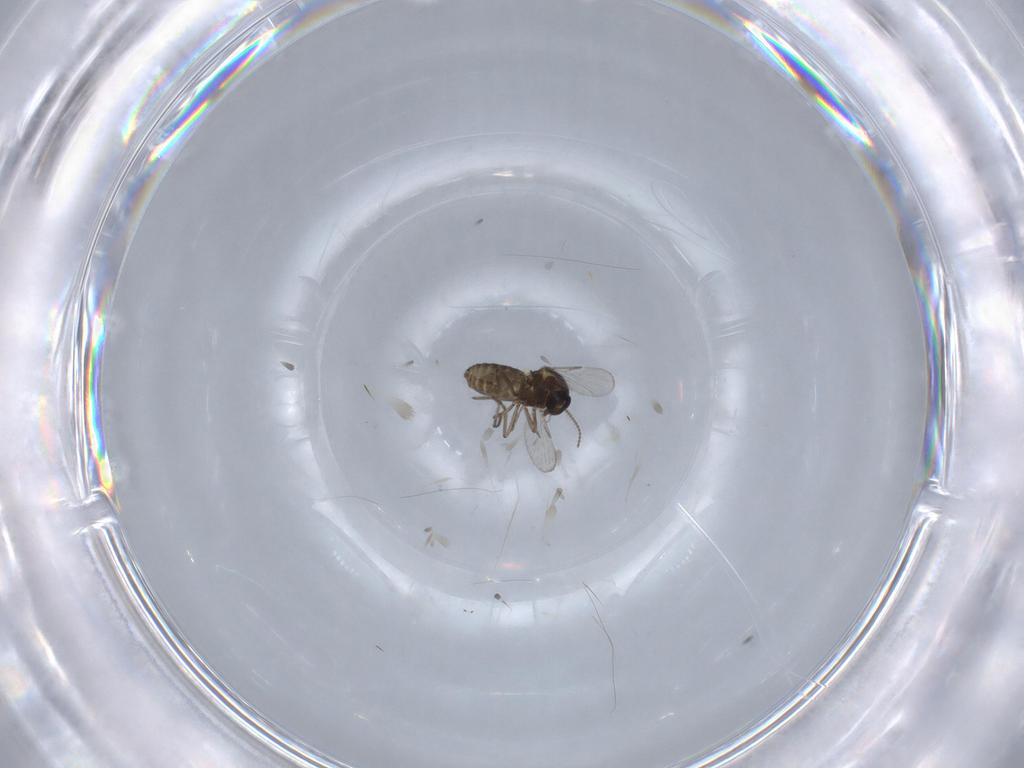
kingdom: Animalia
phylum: Arthropoda
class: Insecta
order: Diptera
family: Ceratopogonidae
